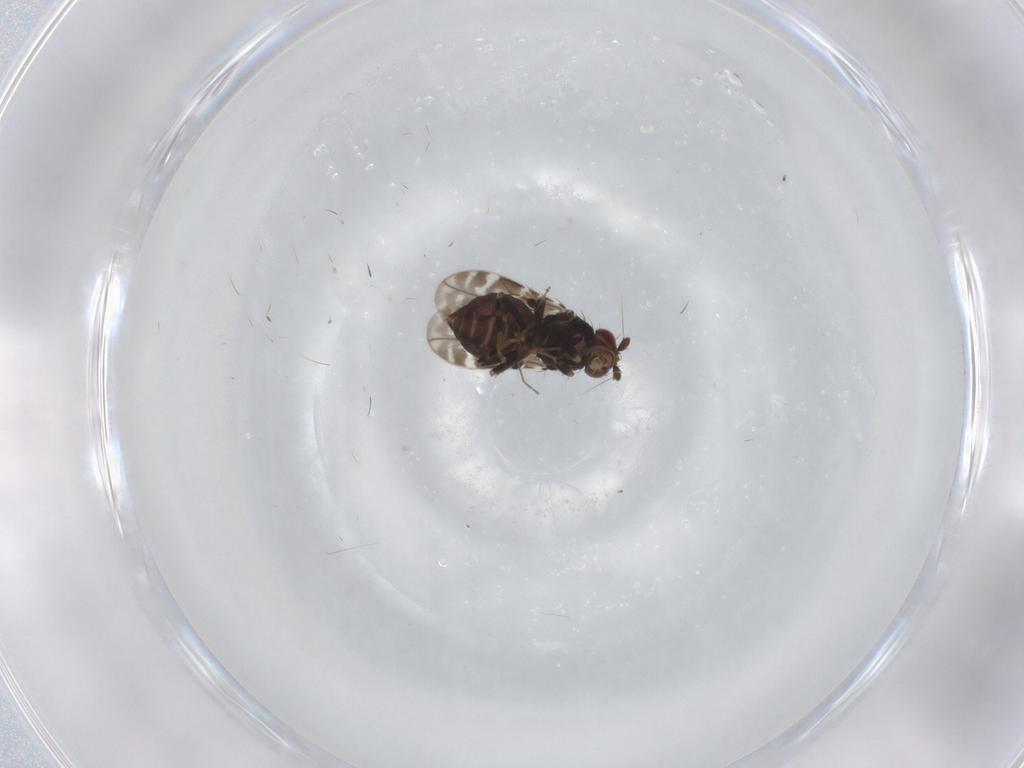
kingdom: Animalia
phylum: Arthropoda
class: Insecta
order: Diptera
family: Sphaeroceridae
